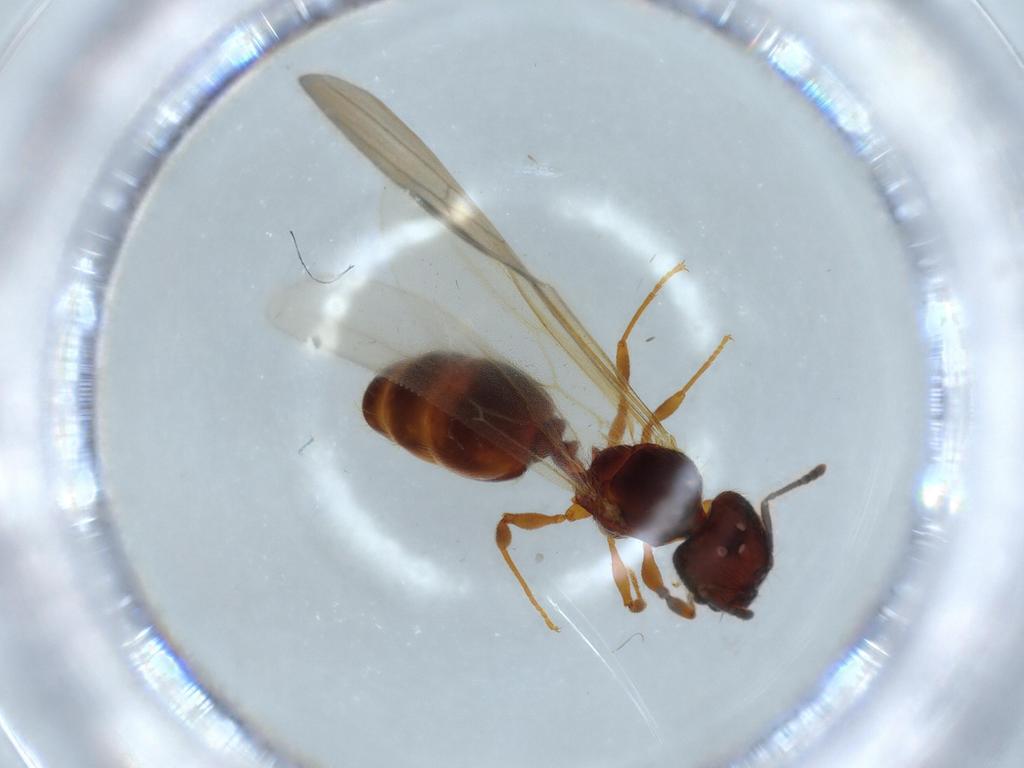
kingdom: Animalia
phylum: Arthropoda
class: Insecta
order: Hymenoptera
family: Formicidae
